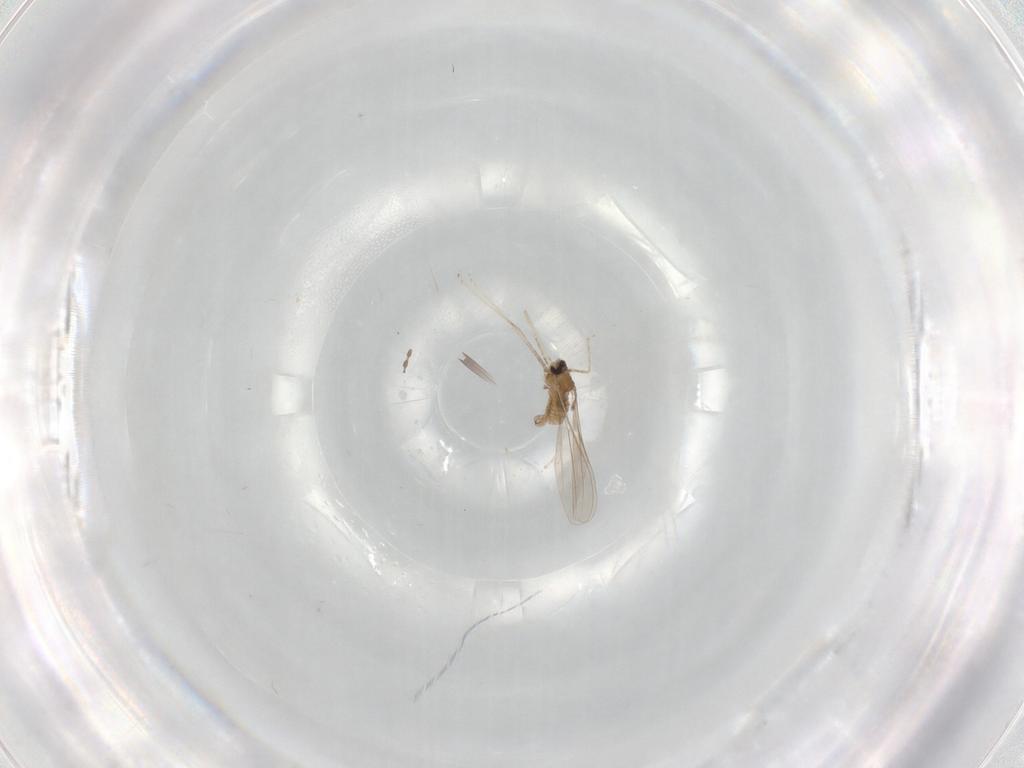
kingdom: Animalia
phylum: Arthropoda
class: Insecta
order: Diptera
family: Cecidomyiidae
